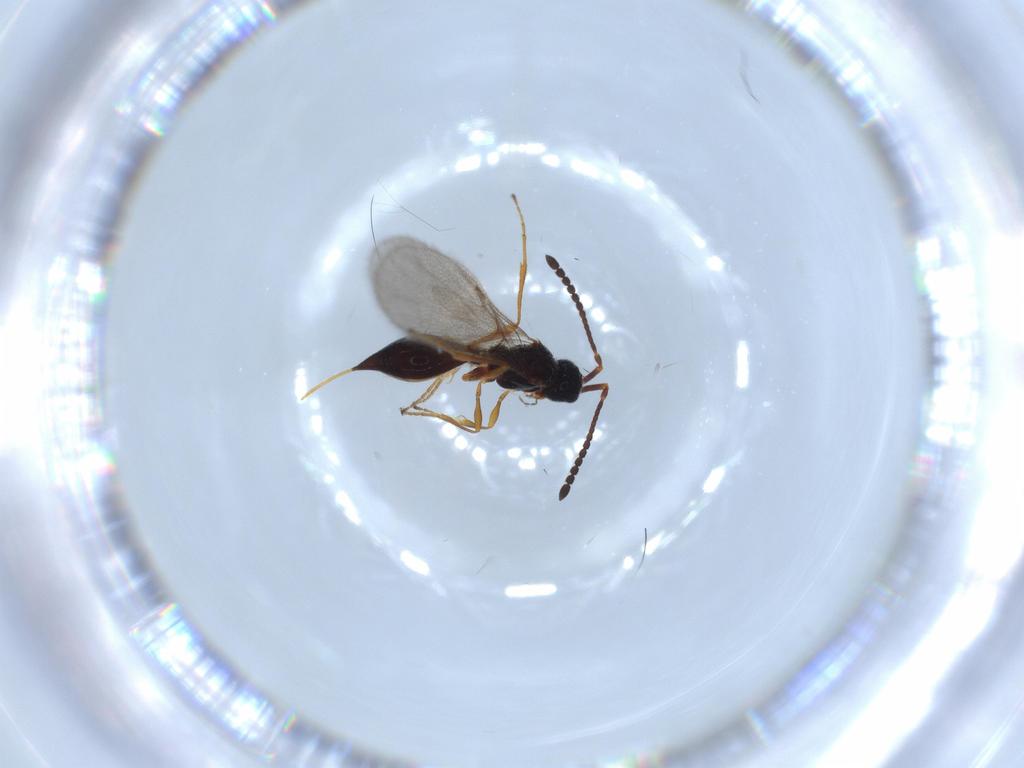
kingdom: Animalia
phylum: Arthropoda
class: Insecta
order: Hymenoptera
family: Diapriidae
